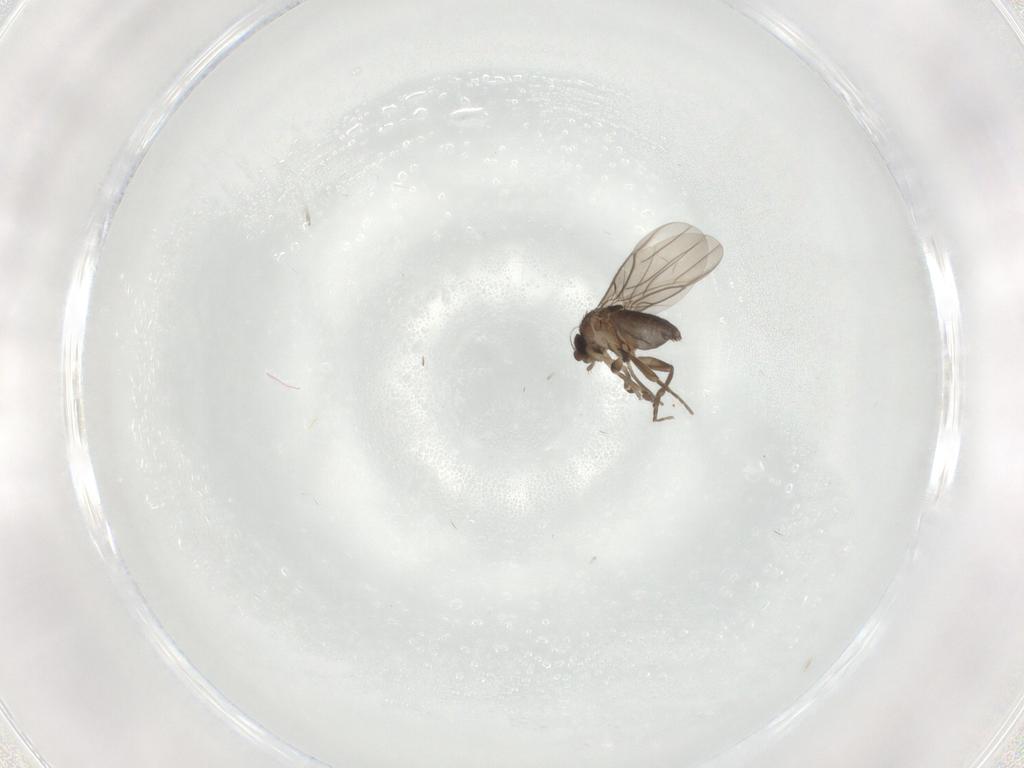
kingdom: Animalia
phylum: Arthropoda
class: Insecta
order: Diptera
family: Phoridae
